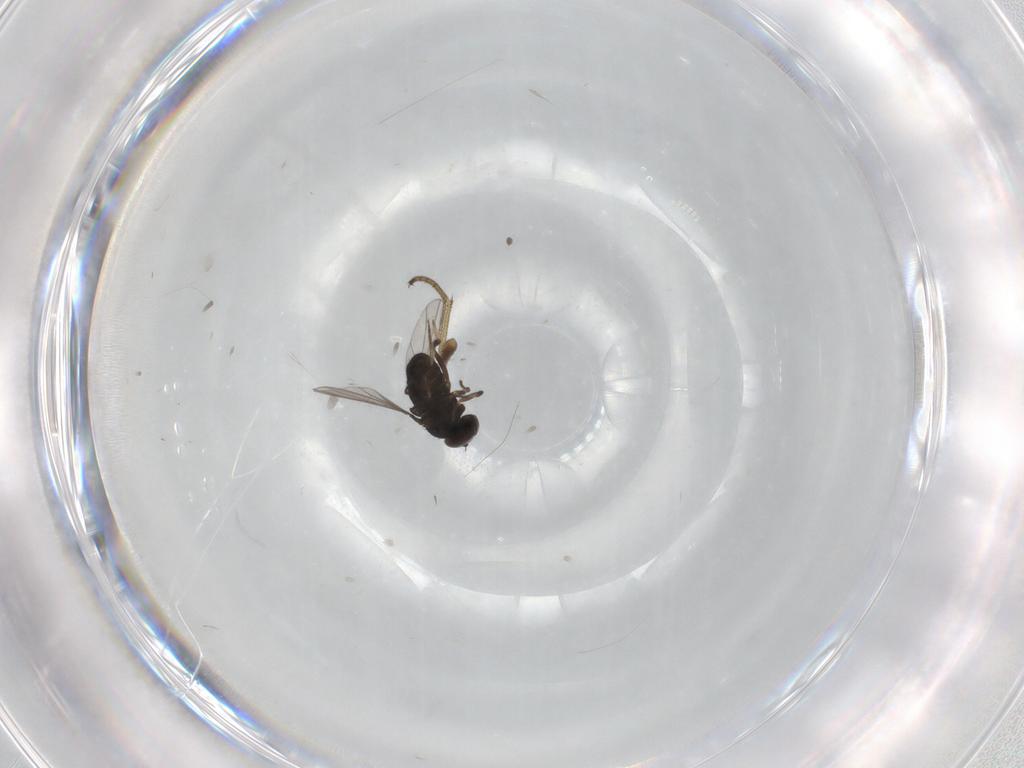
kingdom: Animalia
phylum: Arthropoda
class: Insecta
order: Diptera
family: Dolichopodidae
